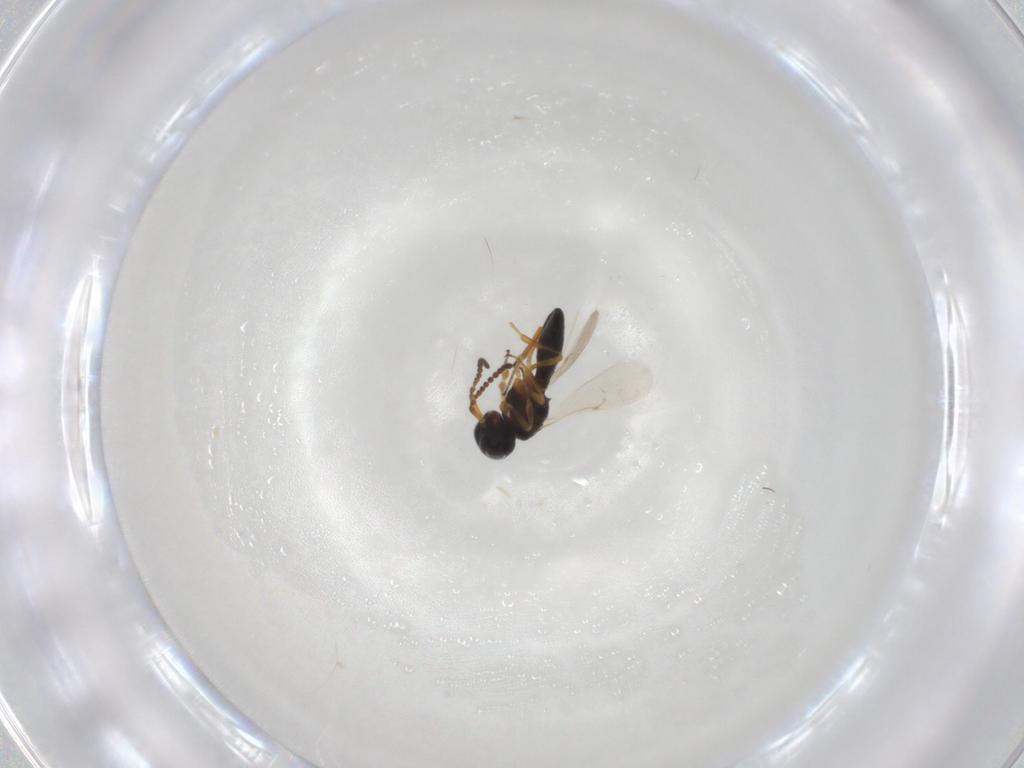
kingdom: Animalia
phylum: Arthropoda
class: Insecta
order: Hymenoptera
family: Scelionidae
